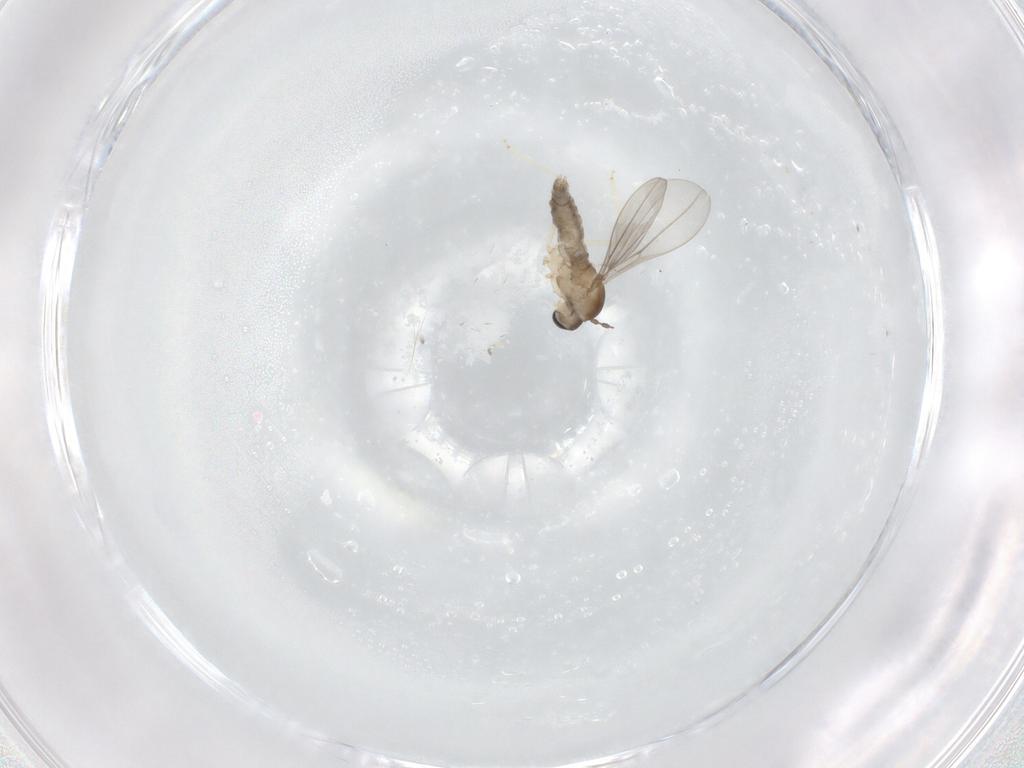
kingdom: Animalia
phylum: Arthropoda
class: Insecta
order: Diptera
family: Cecidomyiidae
